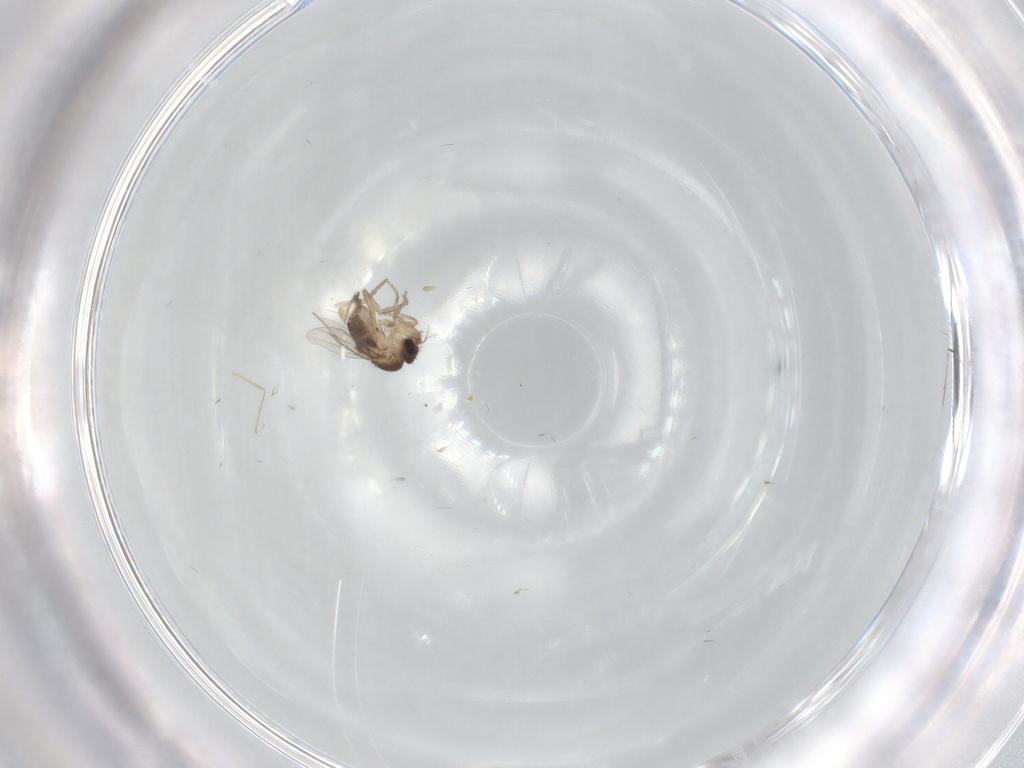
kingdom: Animalia
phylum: Arthropoda
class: Insecta
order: Diptera
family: Cecidomyiidae
